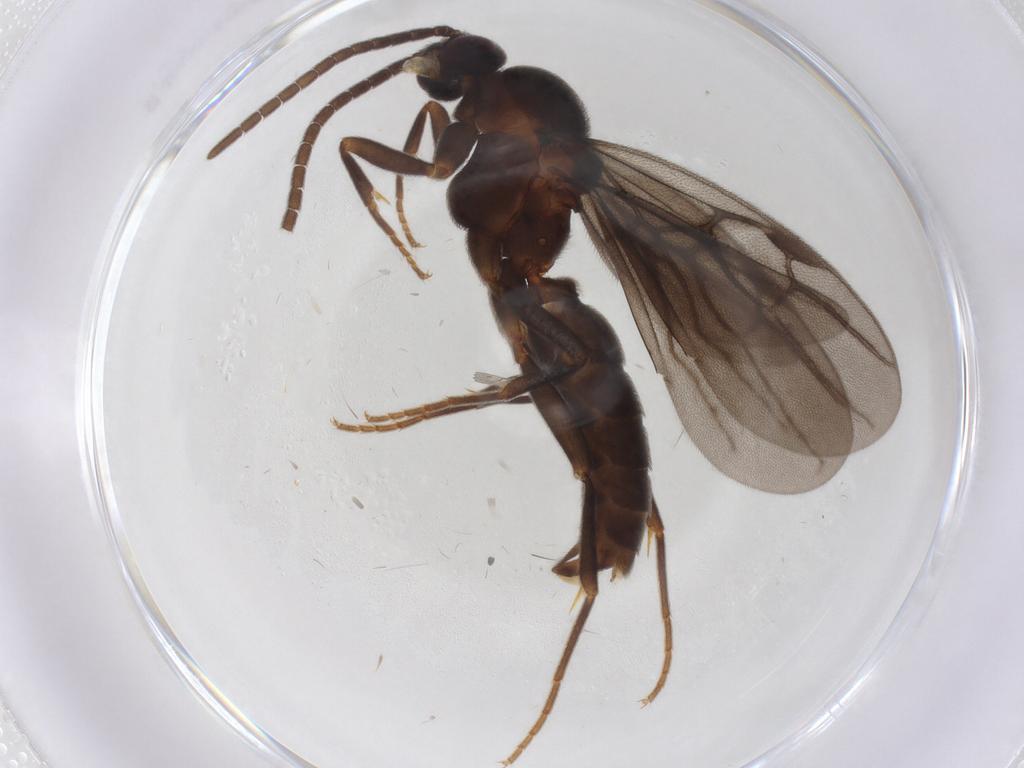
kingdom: Animalia
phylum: Arthropoda
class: Insecta
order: Hymenoptera
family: Formicidae
